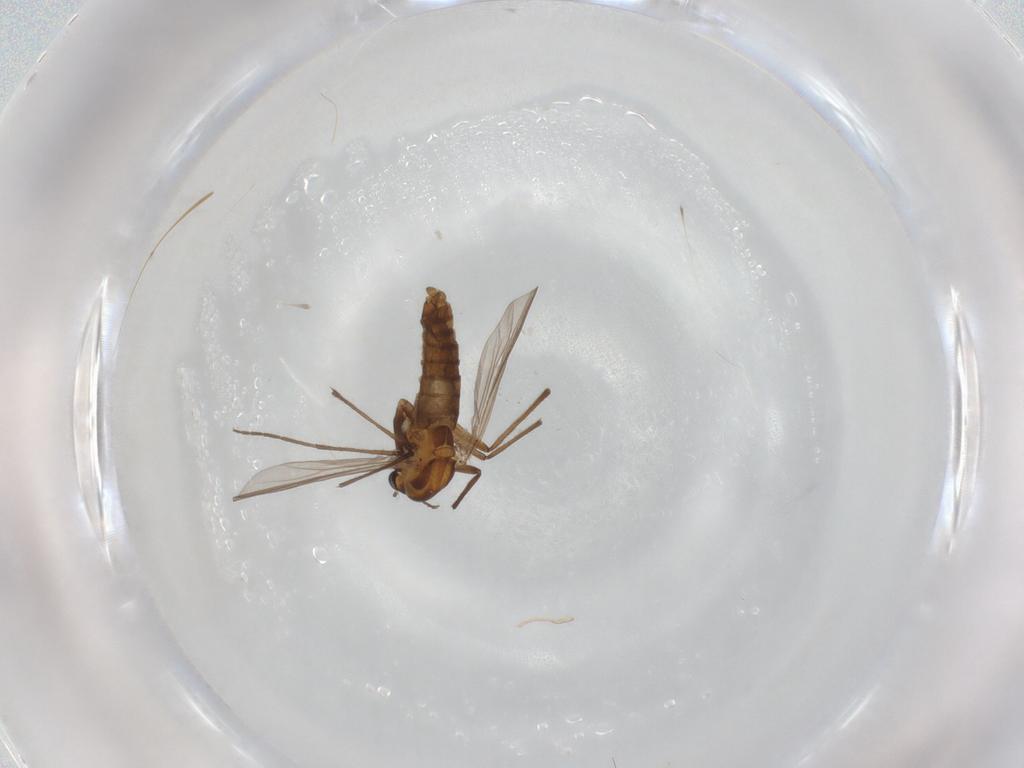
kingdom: Animalia
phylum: Arthropoda
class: Insecta
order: Diptera
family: Chironomidae
